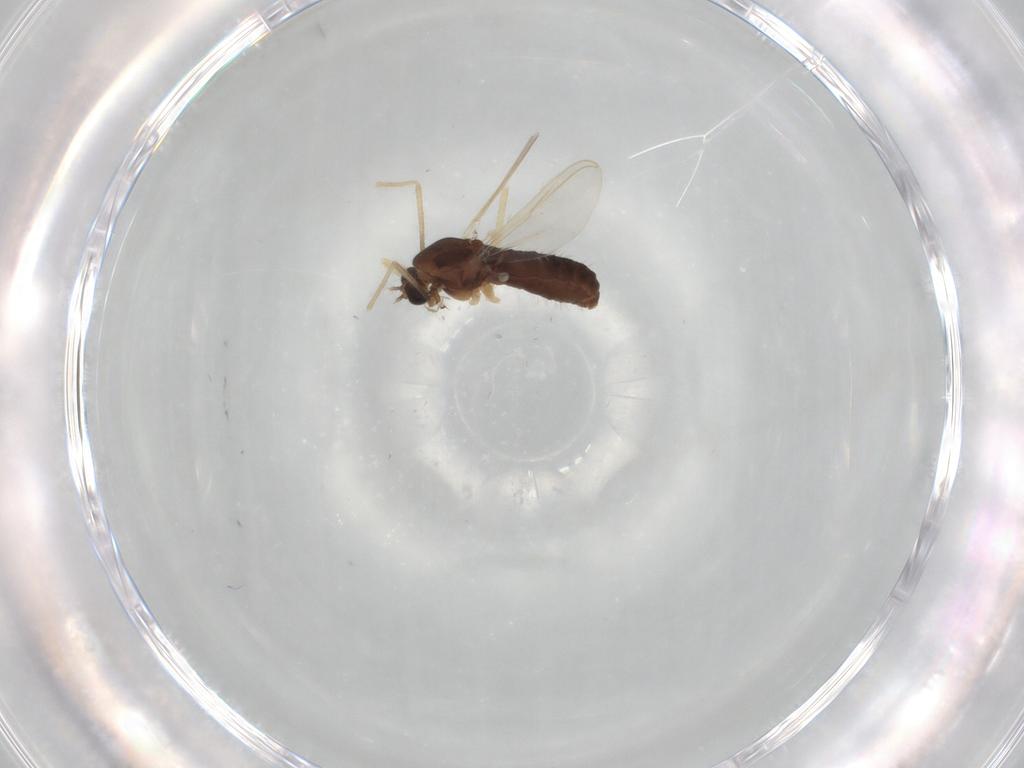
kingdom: Animalia
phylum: Arthropoda
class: Insecta
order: Diptera
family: Chironomidae
